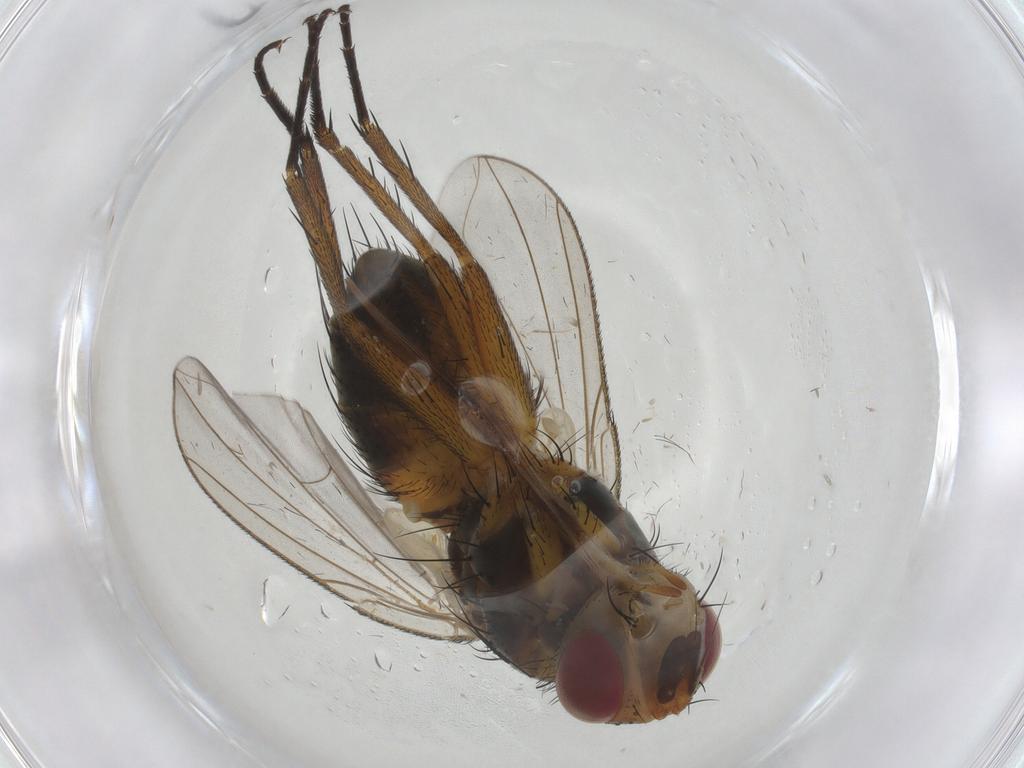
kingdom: Animalia
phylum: Arthropoda
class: Insecta
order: Diptera
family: Tachinidae
